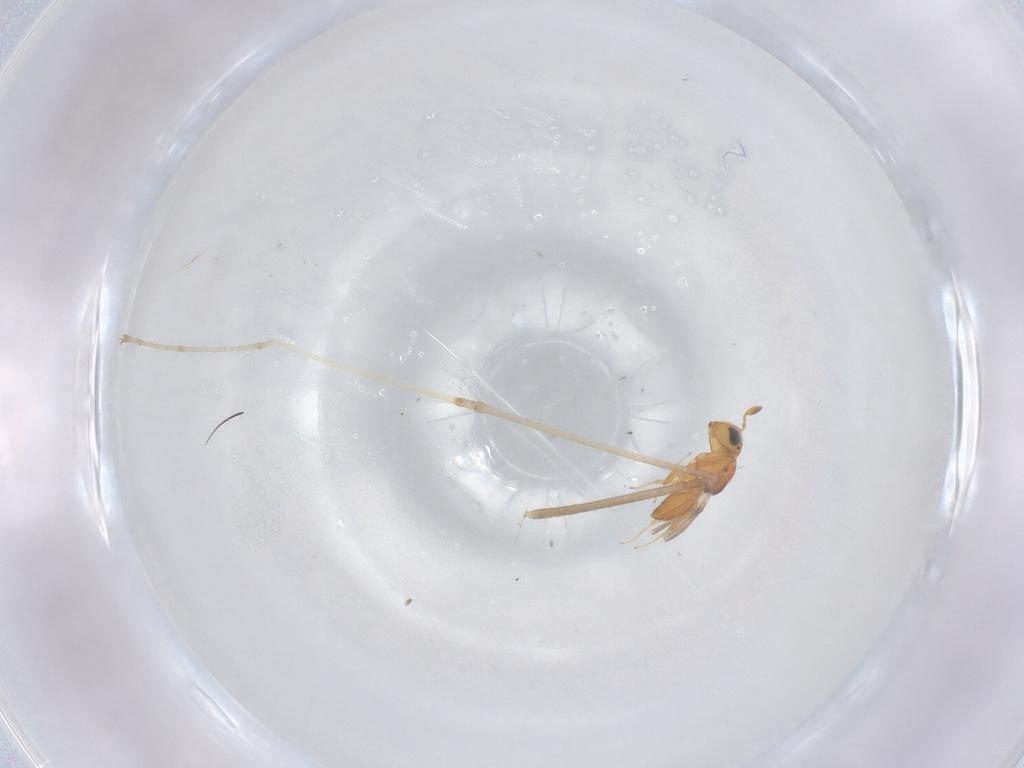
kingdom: Animalia
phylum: Arthropoda
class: Insecta
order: Hymenoptera
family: Scelionidae
